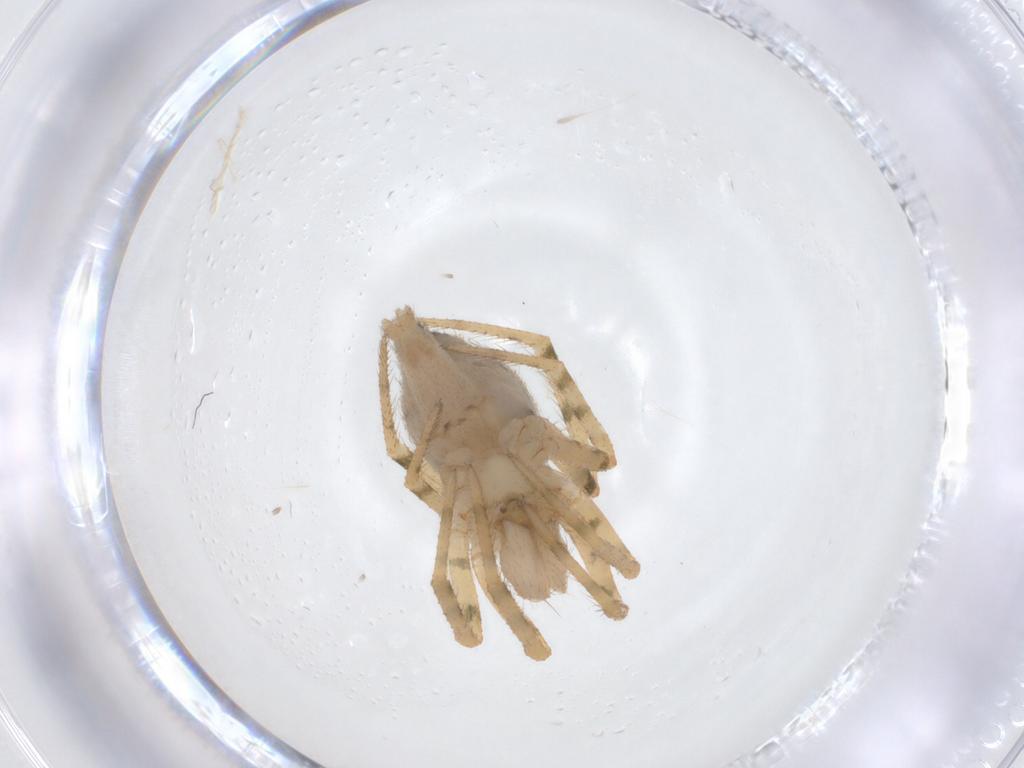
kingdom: Animalia
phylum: Arthropoda
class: Arachnida
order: Araneae
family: Theridiidae
